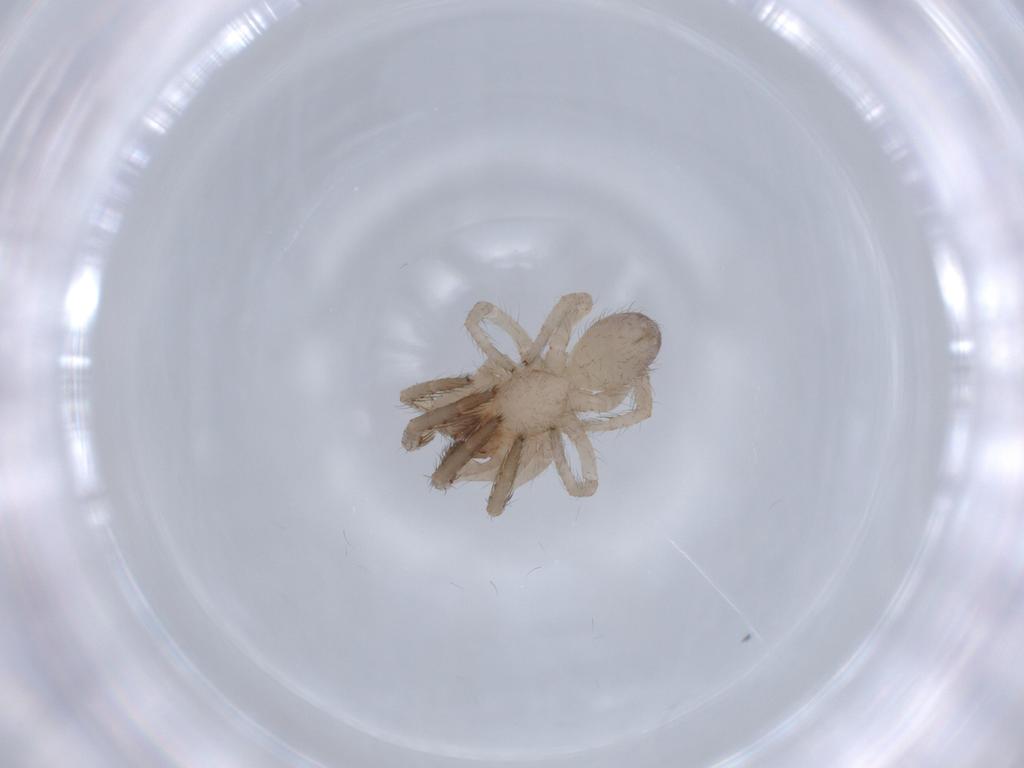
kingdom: Animalia
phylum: Arthropoda
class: Arachnida
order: Araneae
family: Segestriidae
